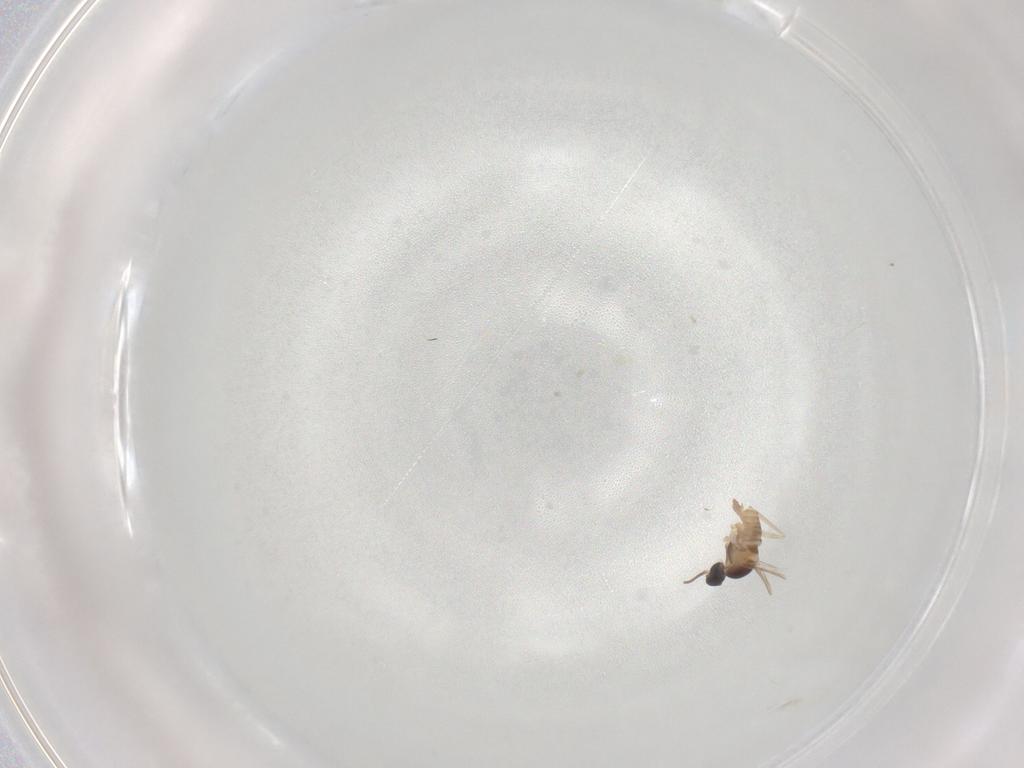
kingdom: Animalia
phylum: Arthropoda
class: Insecta
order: Diptera
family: Cecidomyiidae
